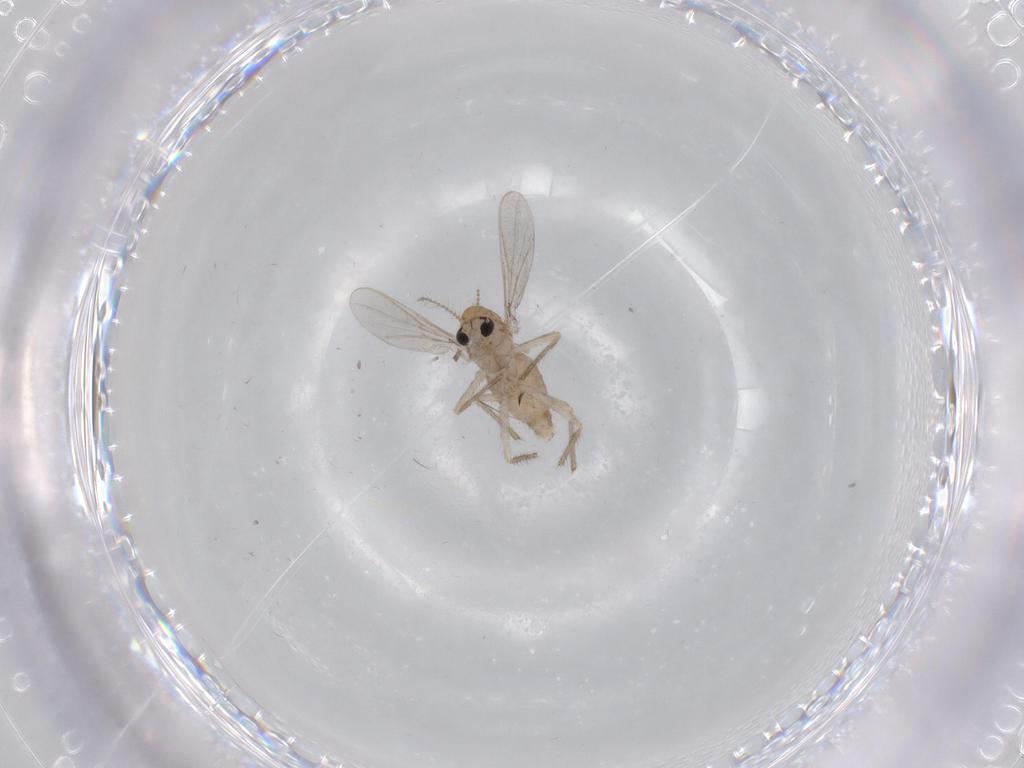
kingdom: Animalia
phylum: Arthropoda
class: Insecta
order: Diptera
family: Chironomidae
